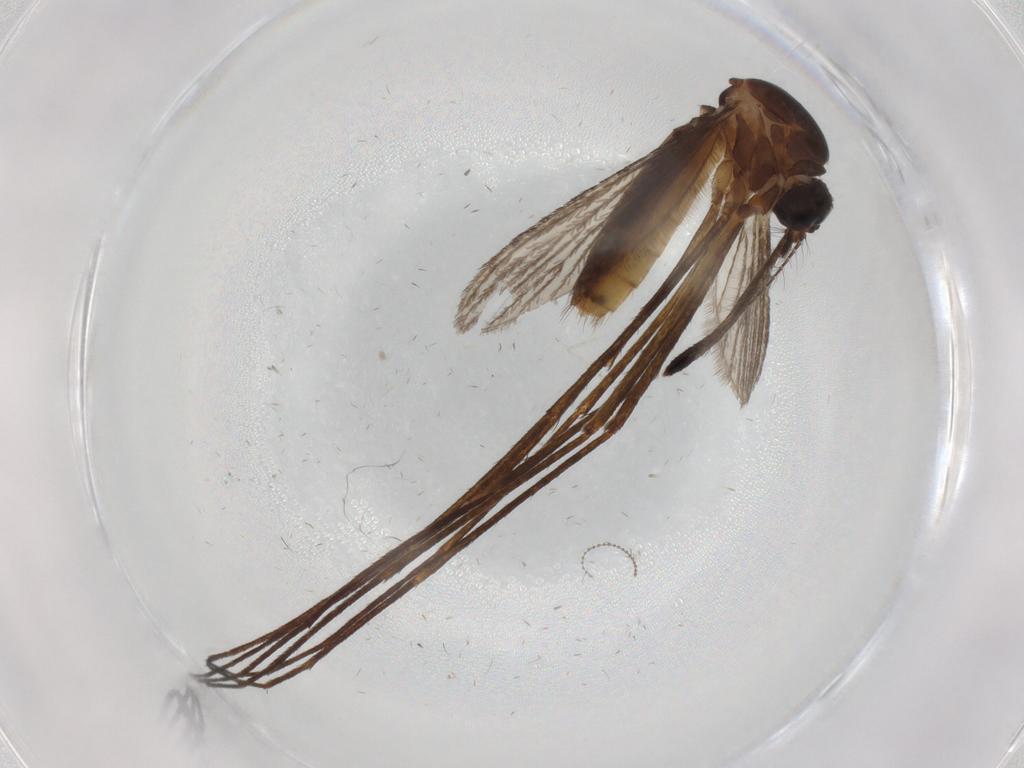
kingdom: Animalia
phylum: Arthropoda
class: Insecta
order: Diptera
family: Culicidae
